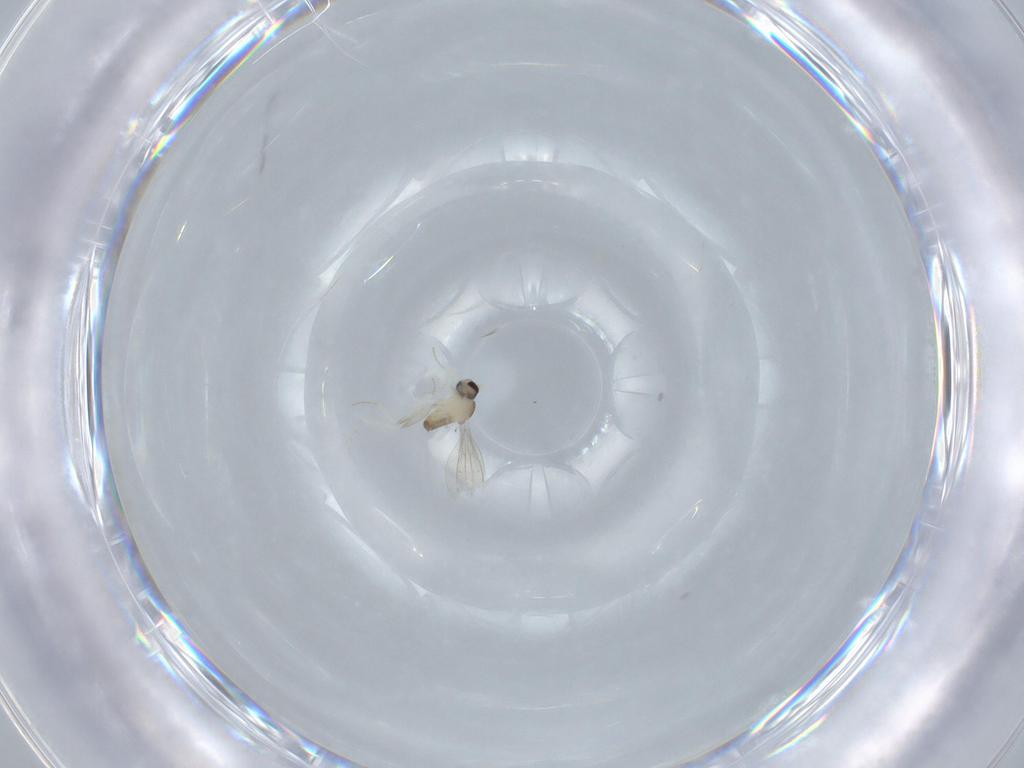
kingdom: Animalia
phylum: Arthropoda
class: Insecta
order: Diptera
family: Cecidomyiidae
